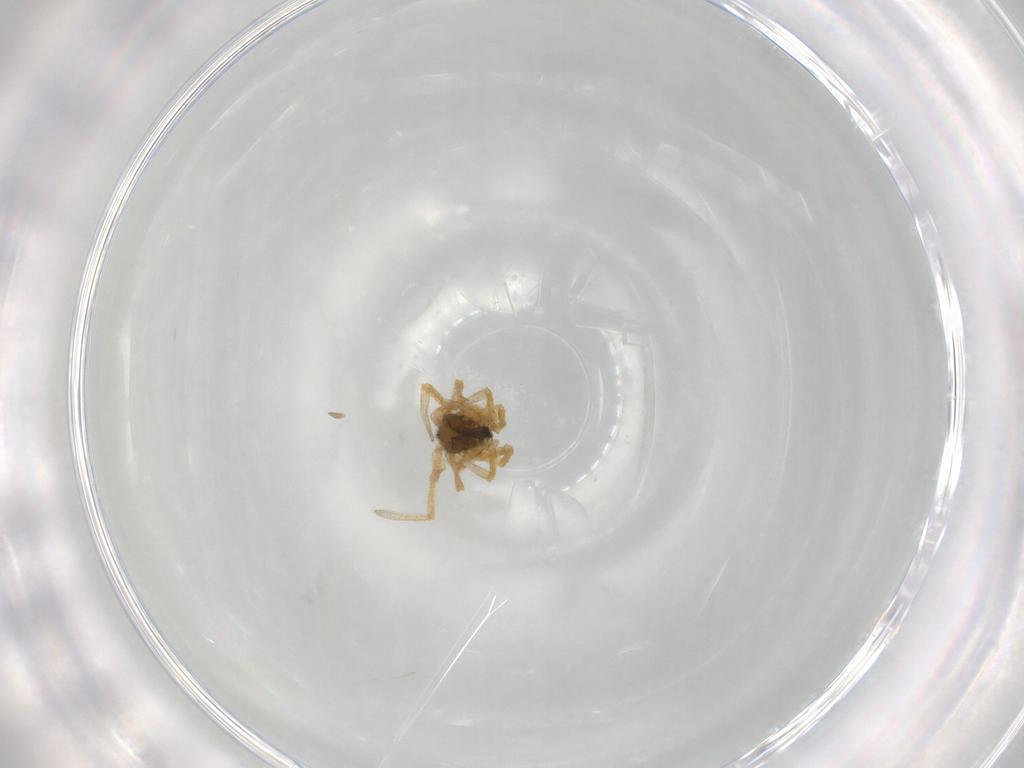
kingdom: Animalia
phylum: Arthropoda
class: Arachnida
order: Araneae
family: Linyphiidae
